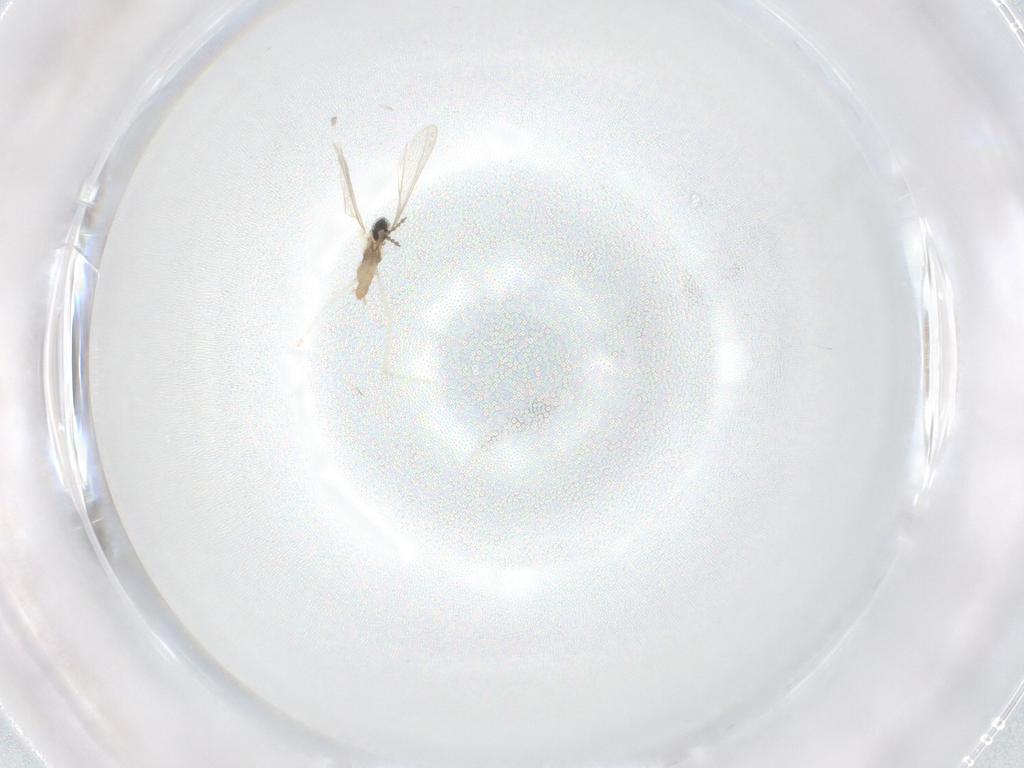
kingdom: Animalia
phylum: Arthropoda
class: Insecta
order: Diptera
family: Cecidomyiidae
